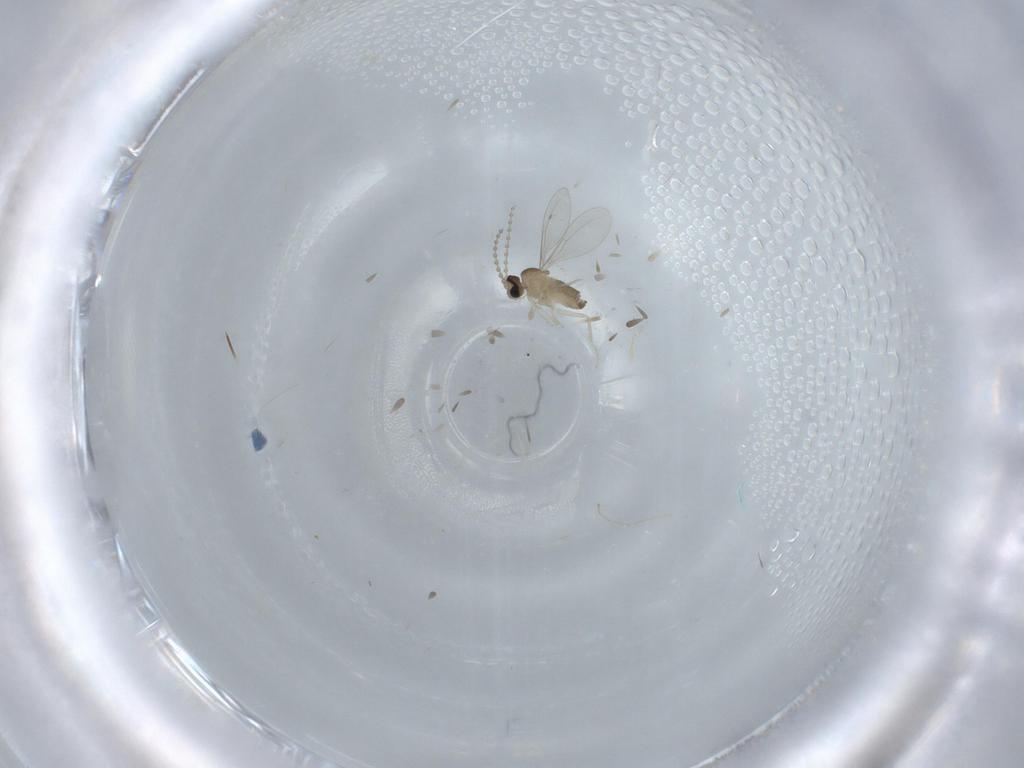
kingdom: Animalia
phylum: Arthropoda
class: Insecta
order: Diptera
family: Cecidomyiidae
